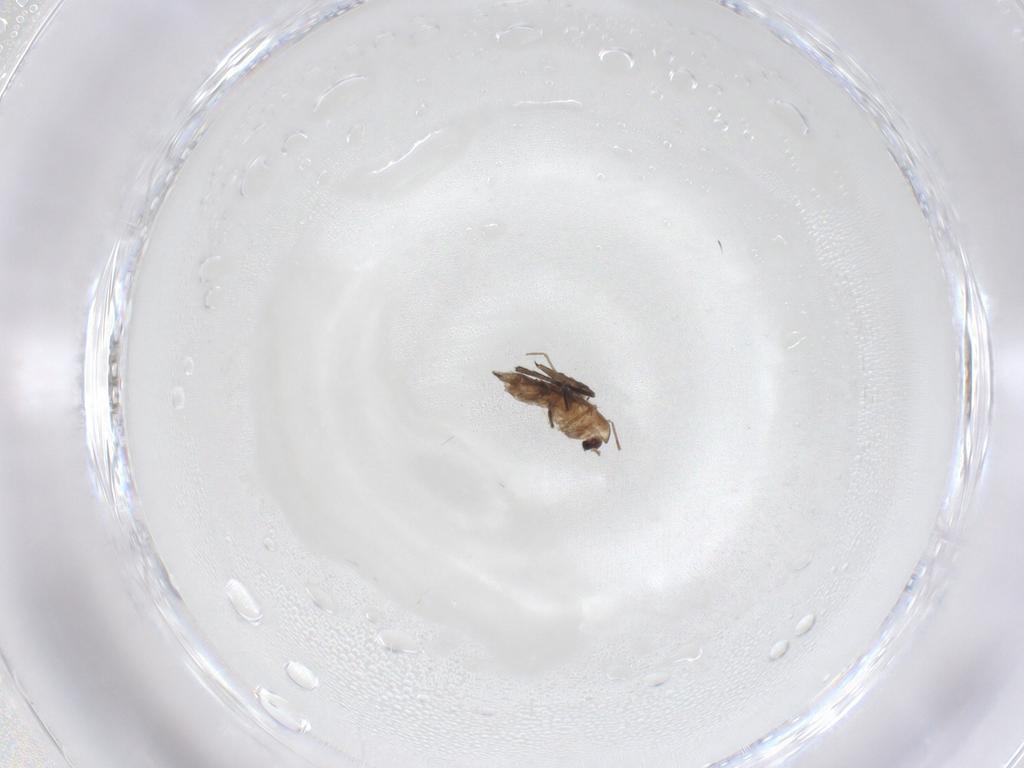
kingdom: Animalia
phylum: Arthropoda
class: Insecta
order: Diptera
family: Chironomidae
